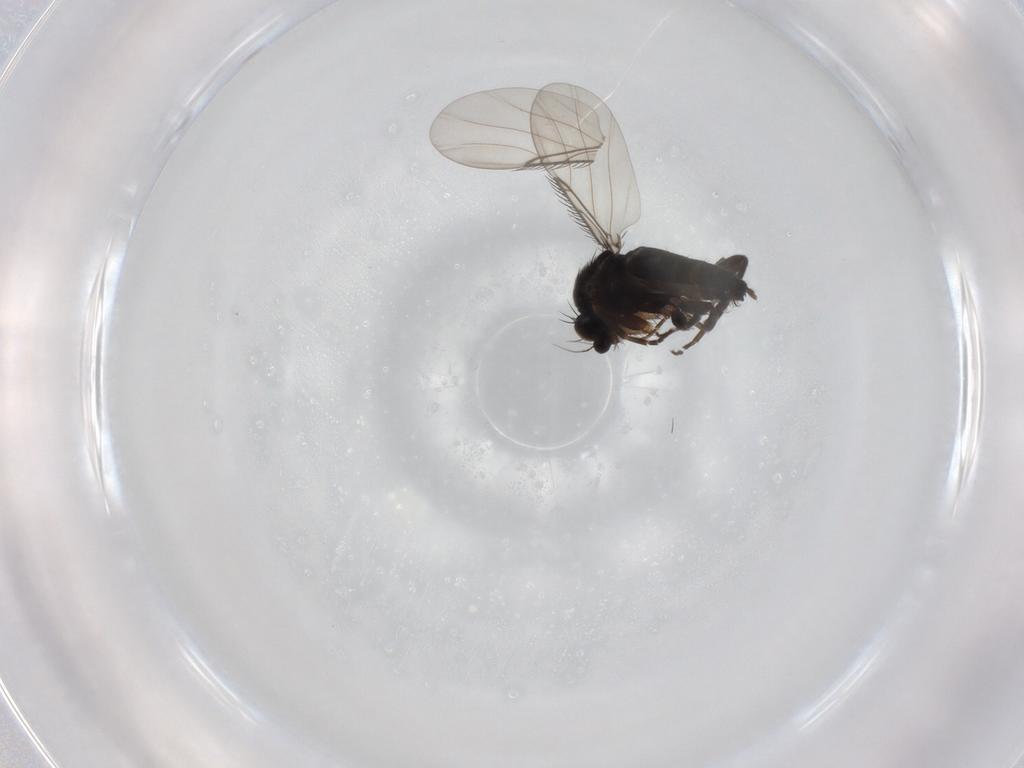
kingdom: Animalia
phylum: Arthropoda
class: Insecta
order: Diptera
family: Phoridae
